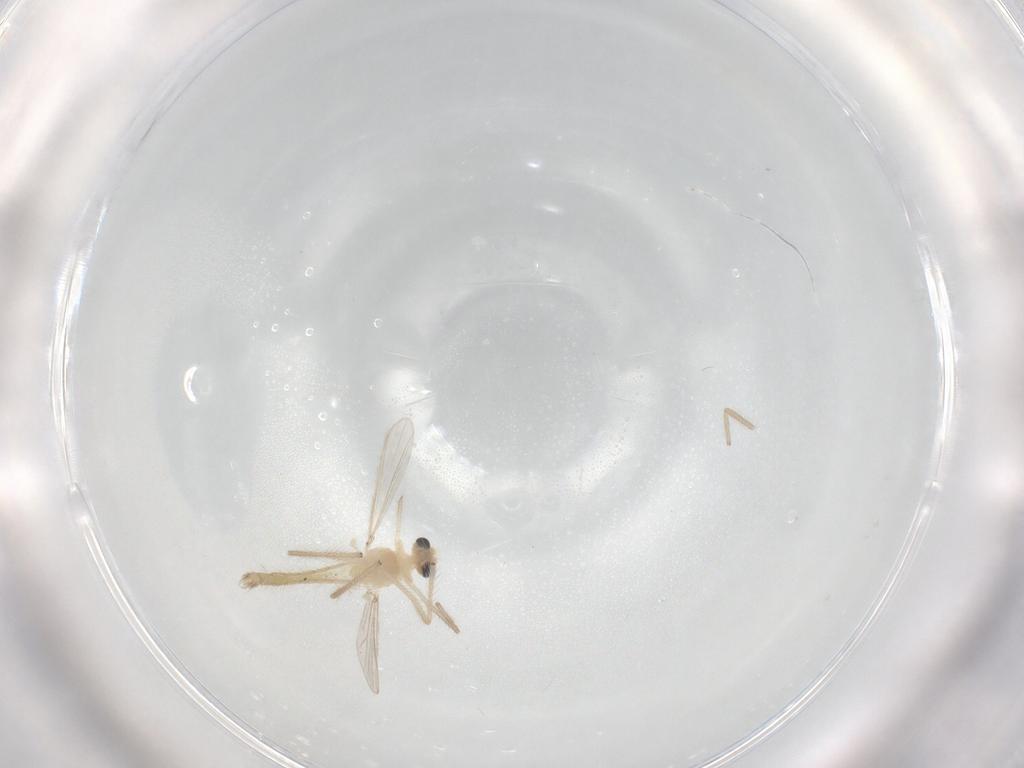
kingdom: Animalia
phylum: Arthropoda
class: Insecta
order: Diptera
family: Chironomidae
